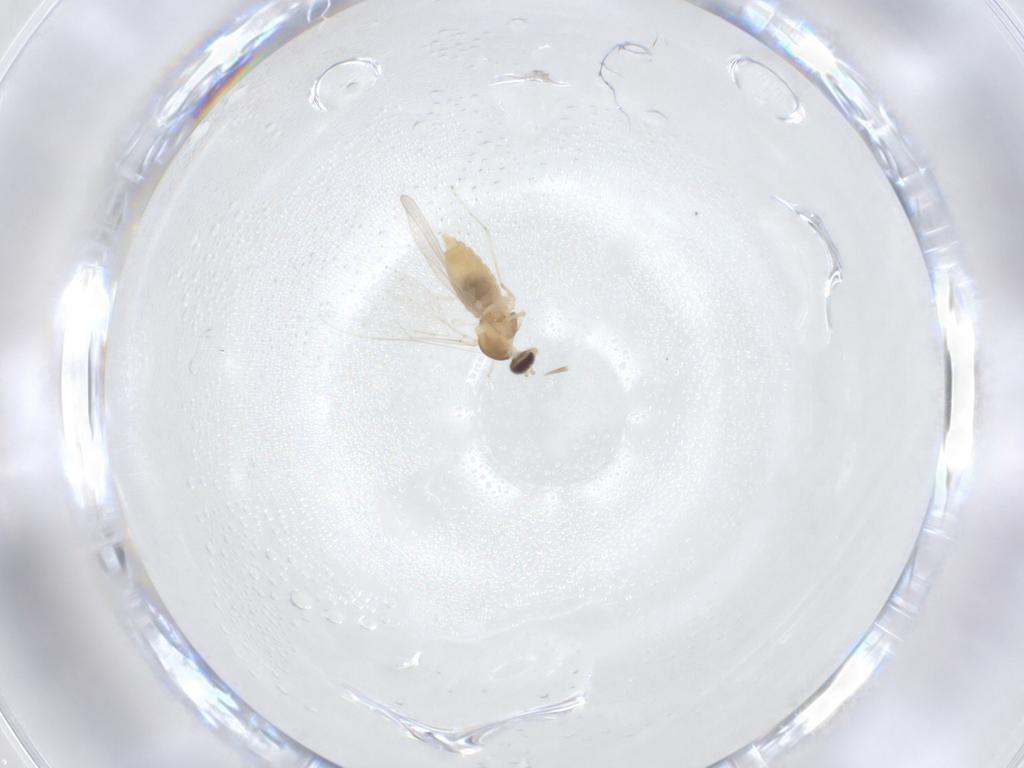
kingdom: Animalia
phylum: Arthropoda
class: Insecta
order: Diptera
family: Cecidomyiidae
